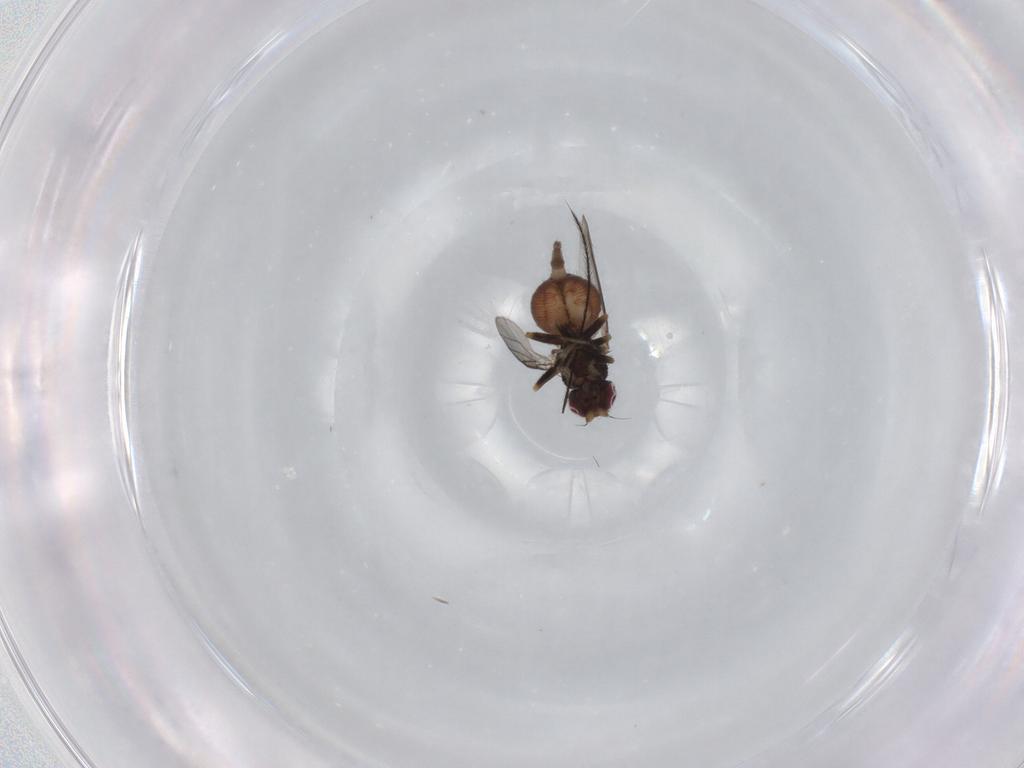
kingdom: Animalia
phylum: Arthropoda
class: Insecta
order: Diptera
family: Chloropidae
